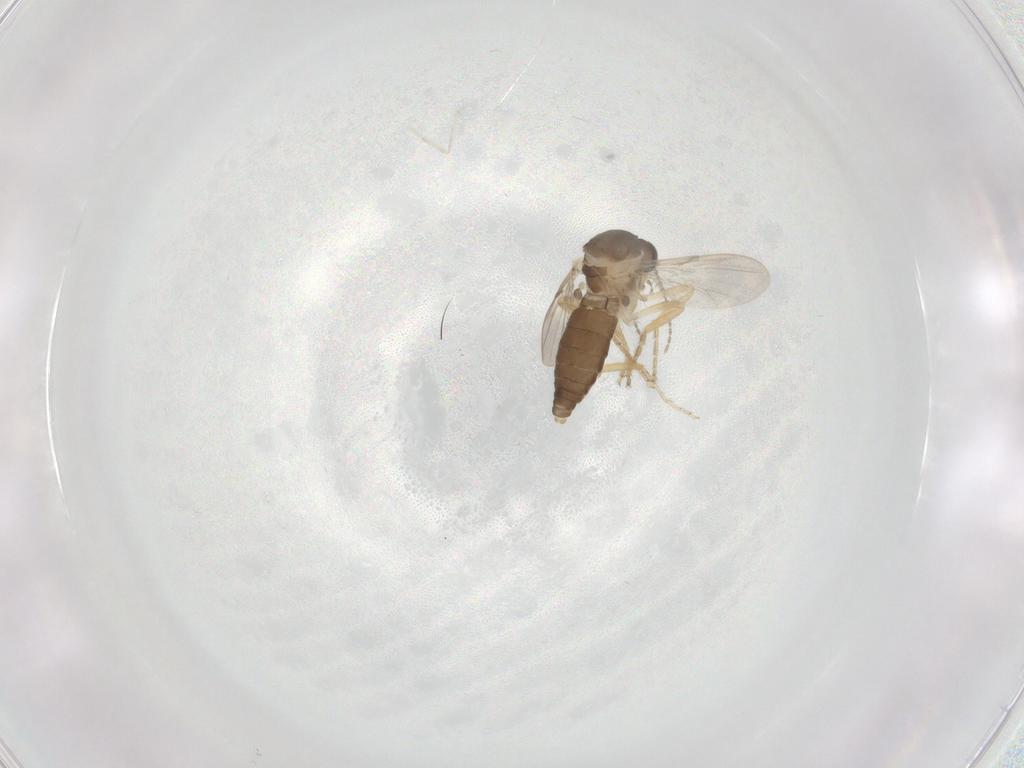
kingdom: Animalia
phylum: Arthropoda
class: Insecta
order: Diptera
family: Ceratopogonidae
